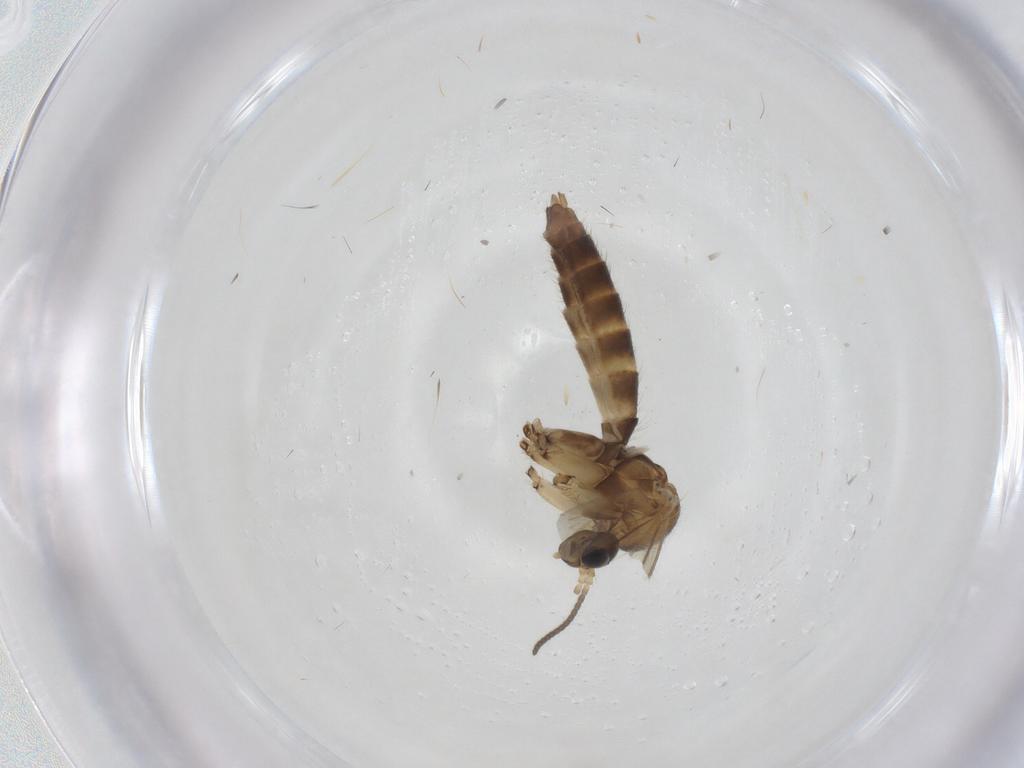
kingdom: Animalia
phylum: Arthropoda
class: Insecta
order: Diptera
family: Mycetophilidae
